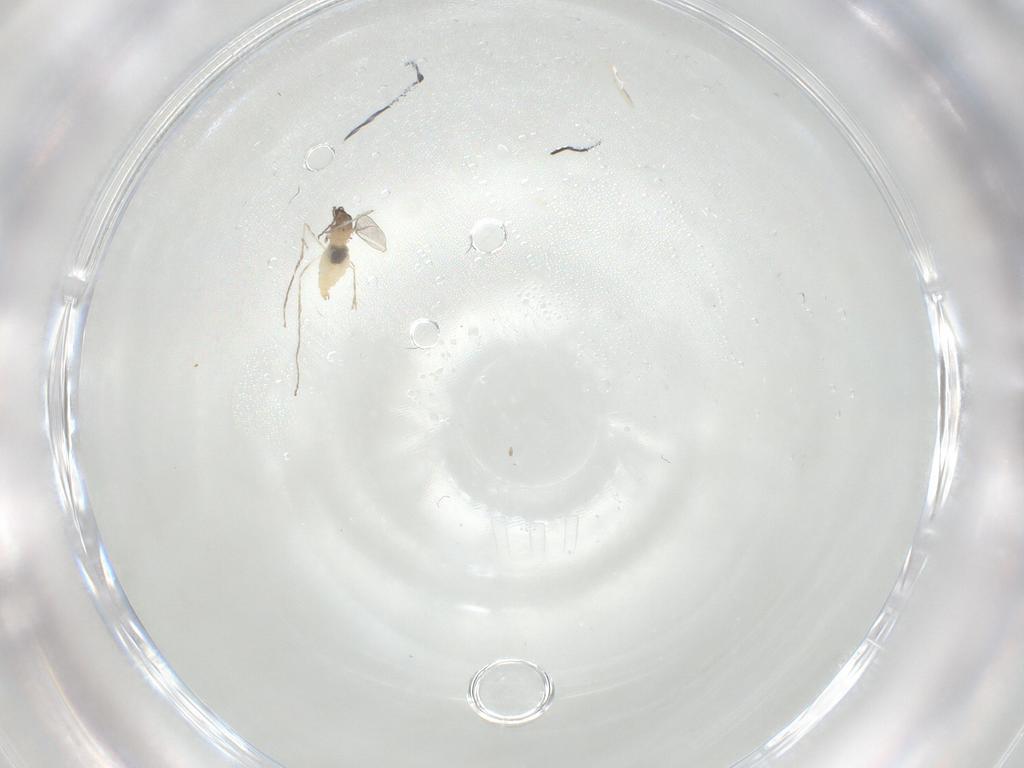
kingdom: Animalia
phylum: Arthropoda
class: Insecta
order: Diptera
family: Cecidomyiidae
